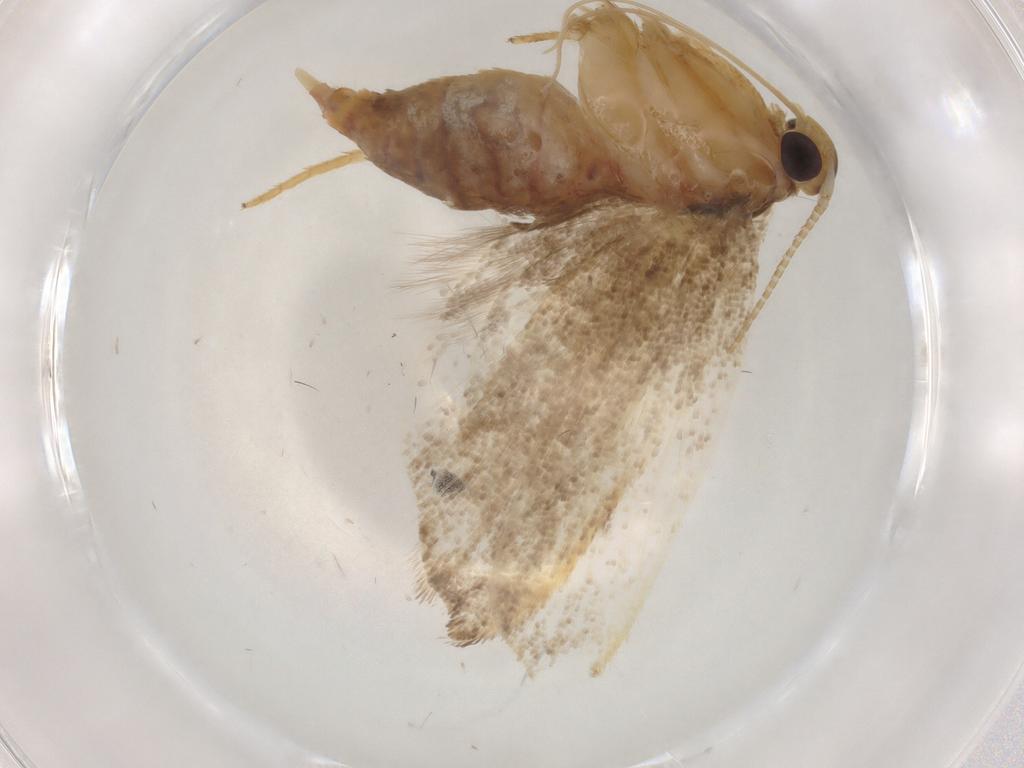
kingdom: Animalia
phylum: Arthropoda
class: Insecta
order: Lepidoptera
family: Lecithoceridae
